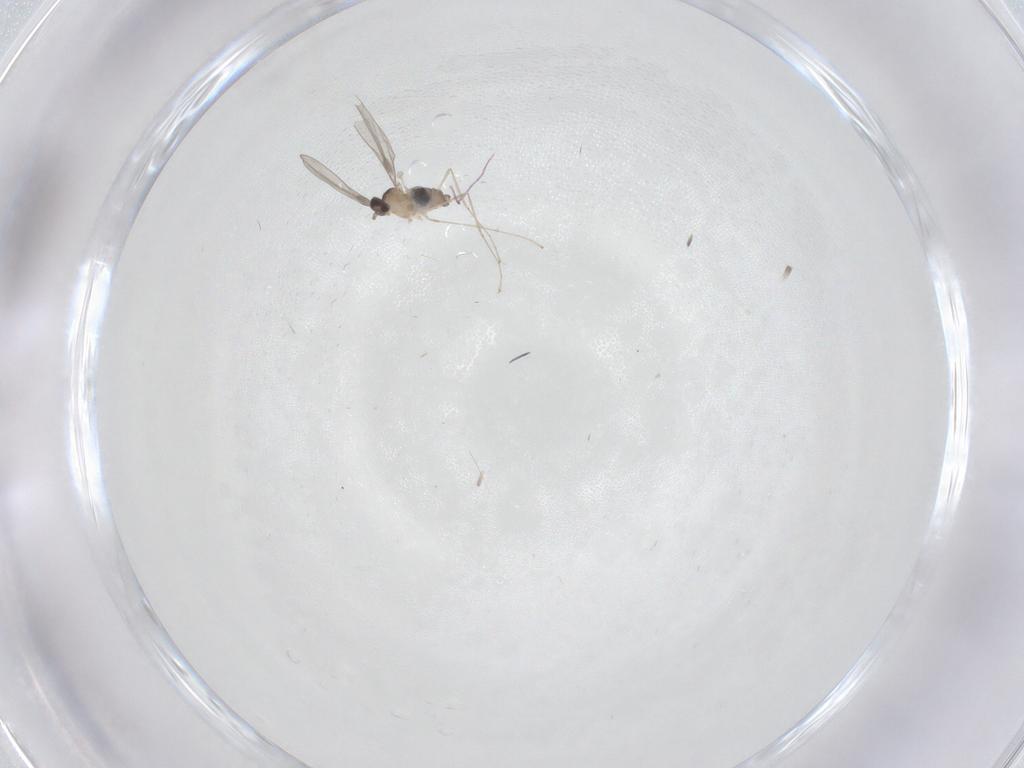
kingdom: Animalia
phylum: Arthropoda
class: Insecta
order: Diptera
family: Cecidomyiidae
